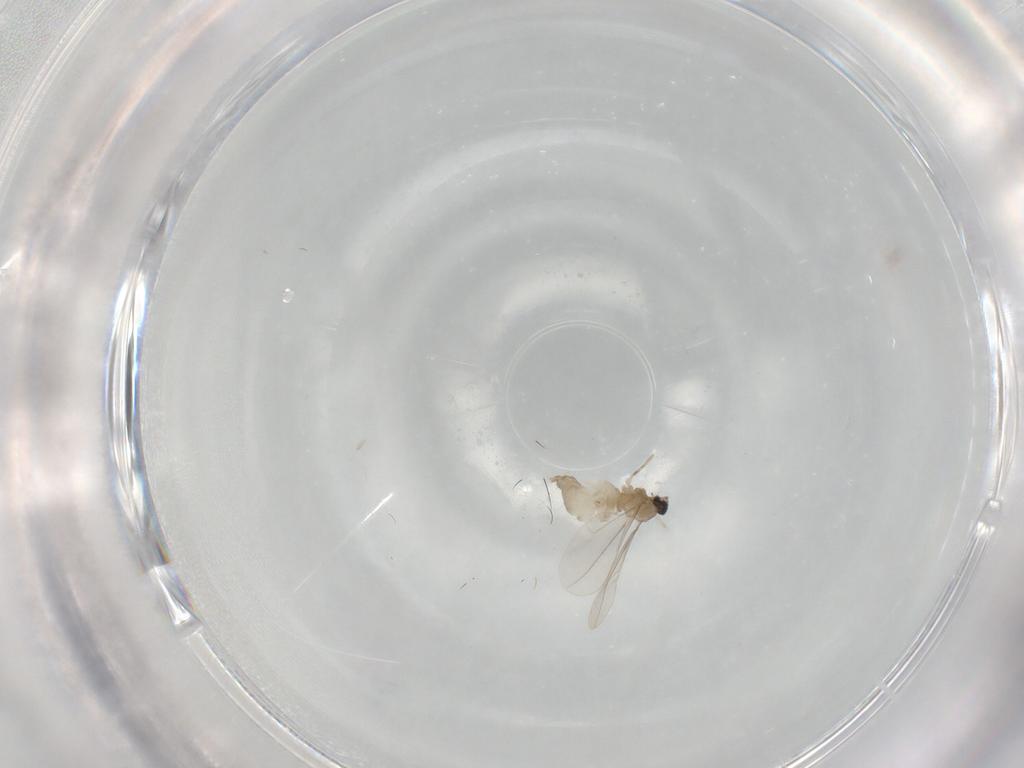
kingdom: Animalia
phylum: Arthropoda
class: Insecta
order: Diptera
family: Cecidomyiidae
